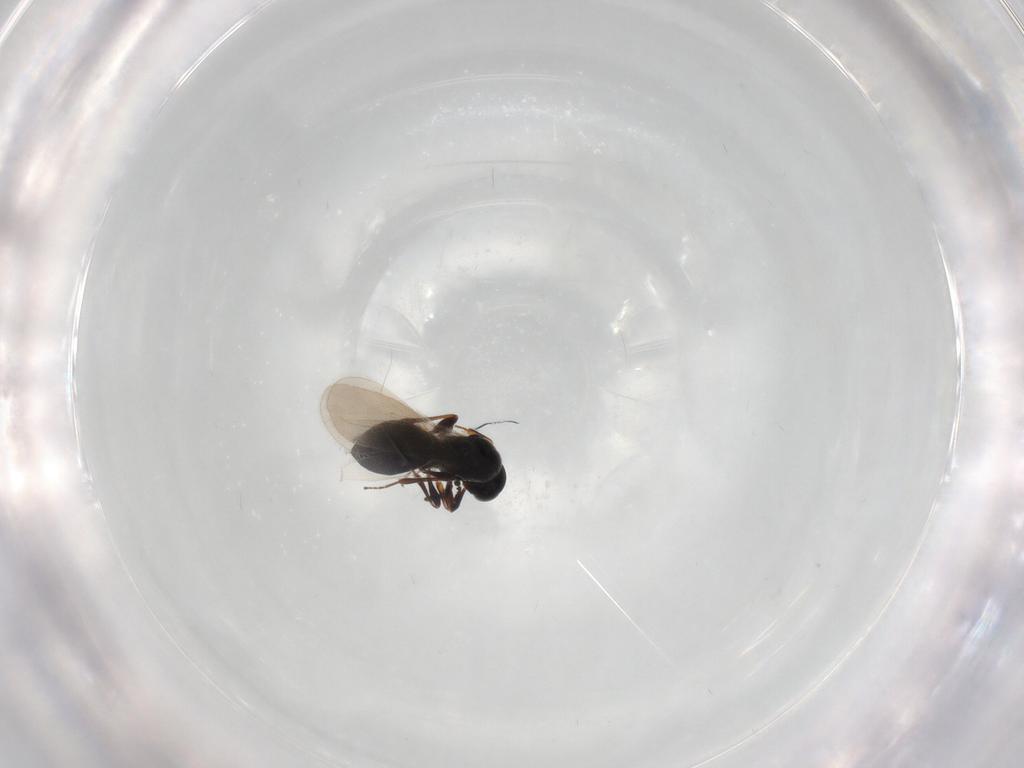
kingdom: Animalia
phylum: Arthropoda
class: Insecta
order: Hymenoptera
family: Platygastridae
